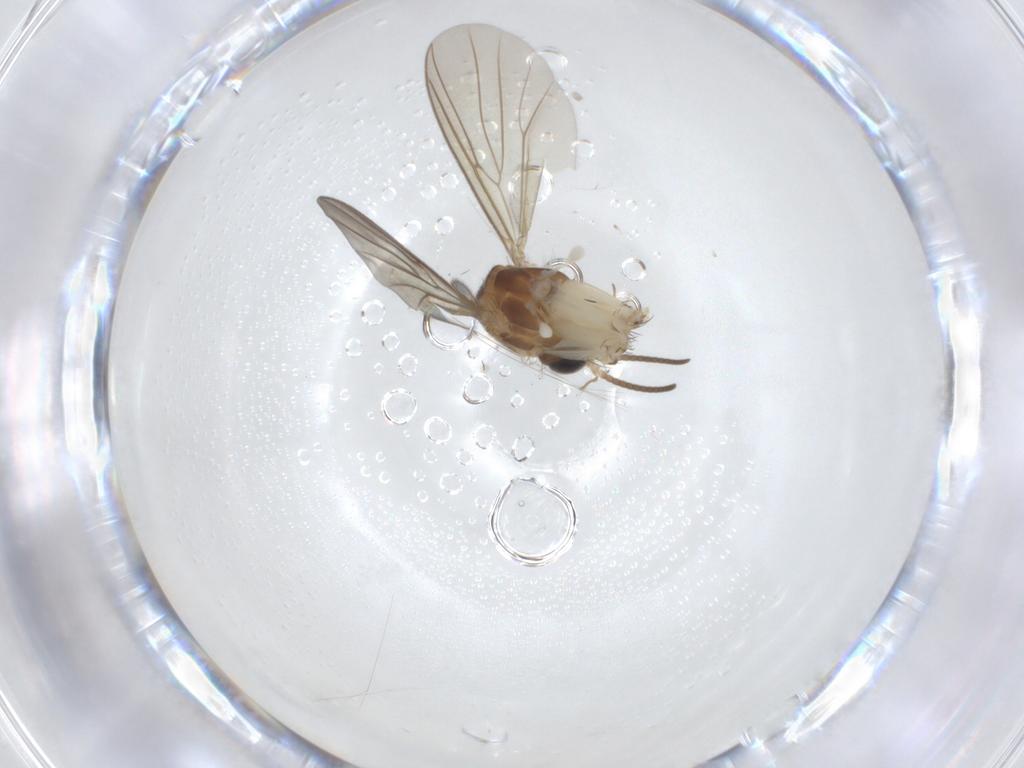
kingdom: Animalia
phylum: Arthropoda
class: Insecta
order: Diptera
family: Mycetophilidae
